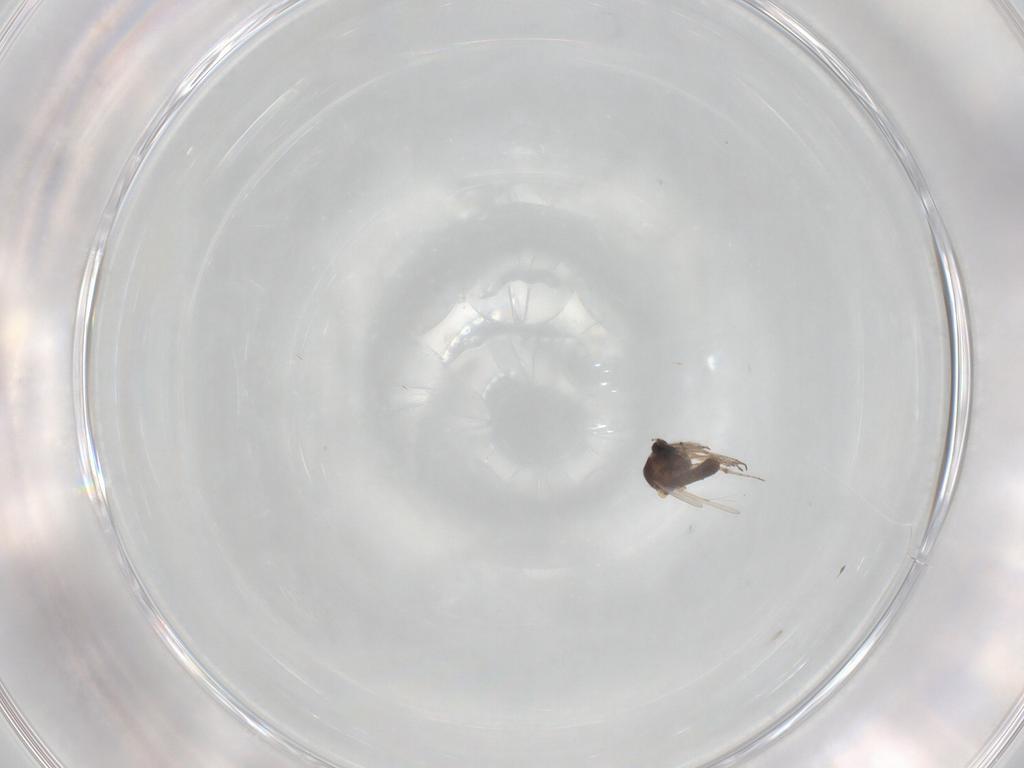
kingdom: Animalia
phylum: Arthropoda
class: Insecta
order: Diptera
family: Ceratopogonidae
